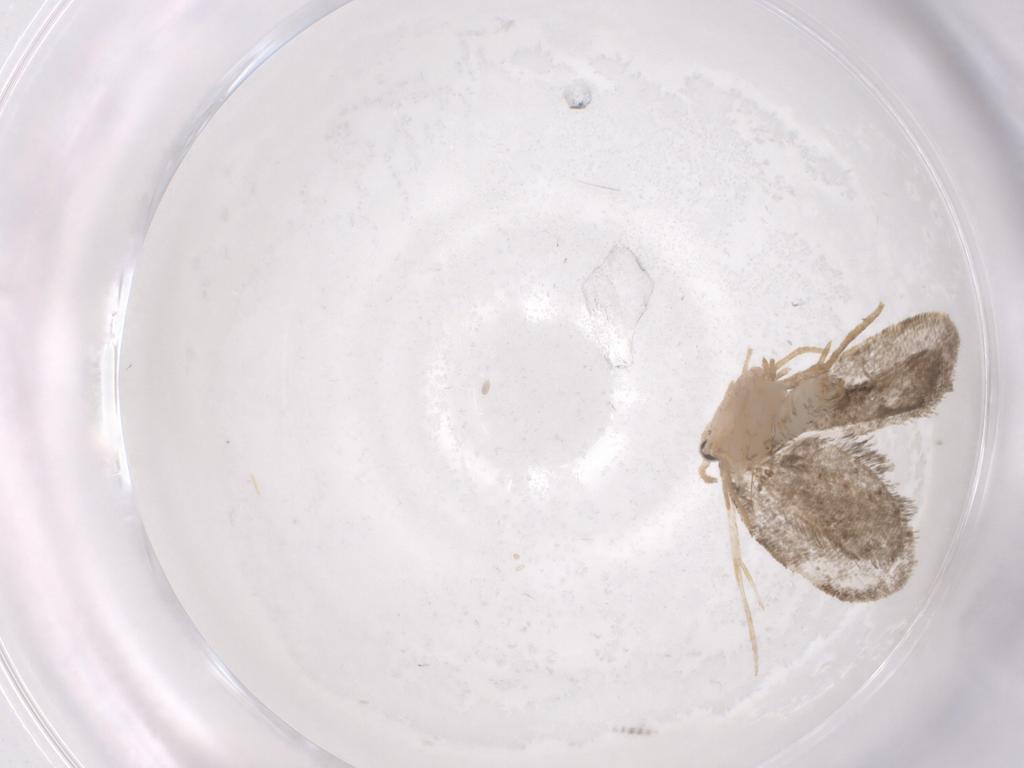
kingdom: Animalia
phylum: Arthropoda
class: Insecta
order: Lepidoptera
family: Psychidae
